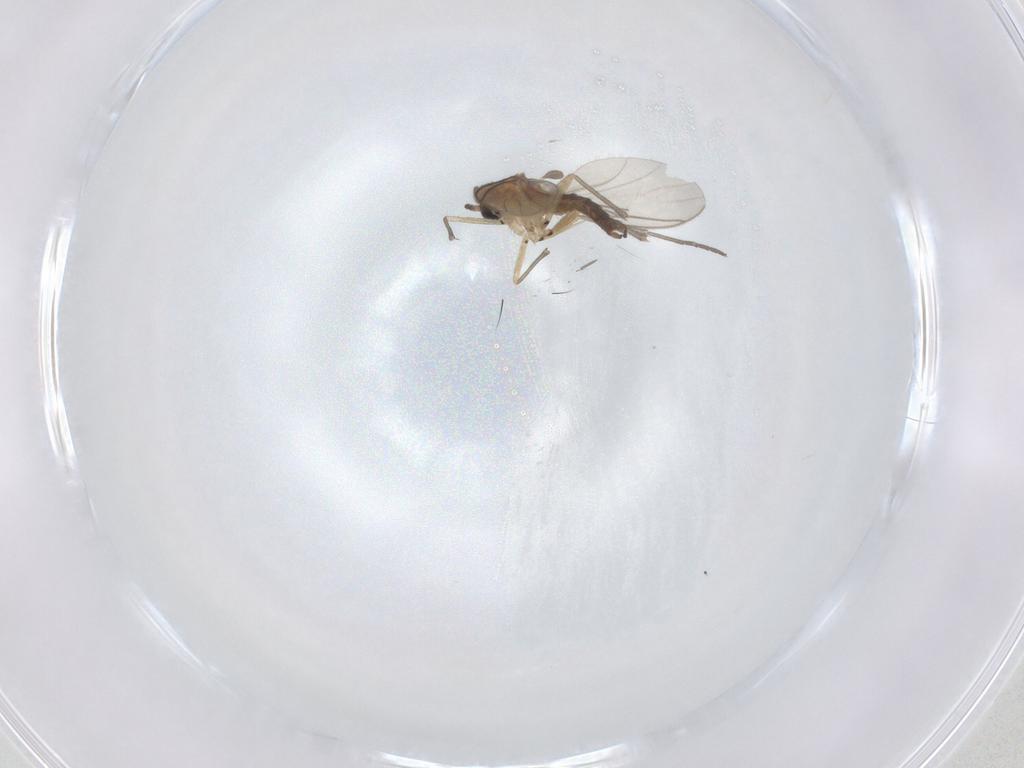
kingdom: Animalia
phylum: Arthropoda
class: Insecta
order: Diptera
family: Sciaridae
